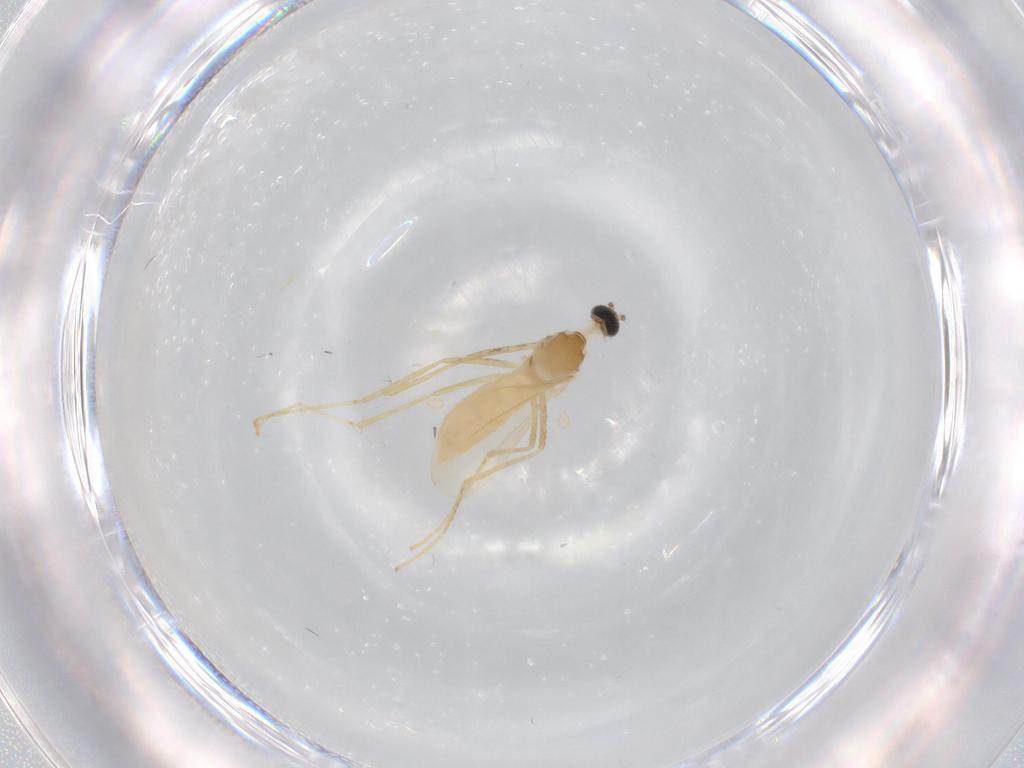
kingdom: Animalia
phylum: Arthropoda
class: Insecta
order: Diptera
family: Cecidomyiidae
